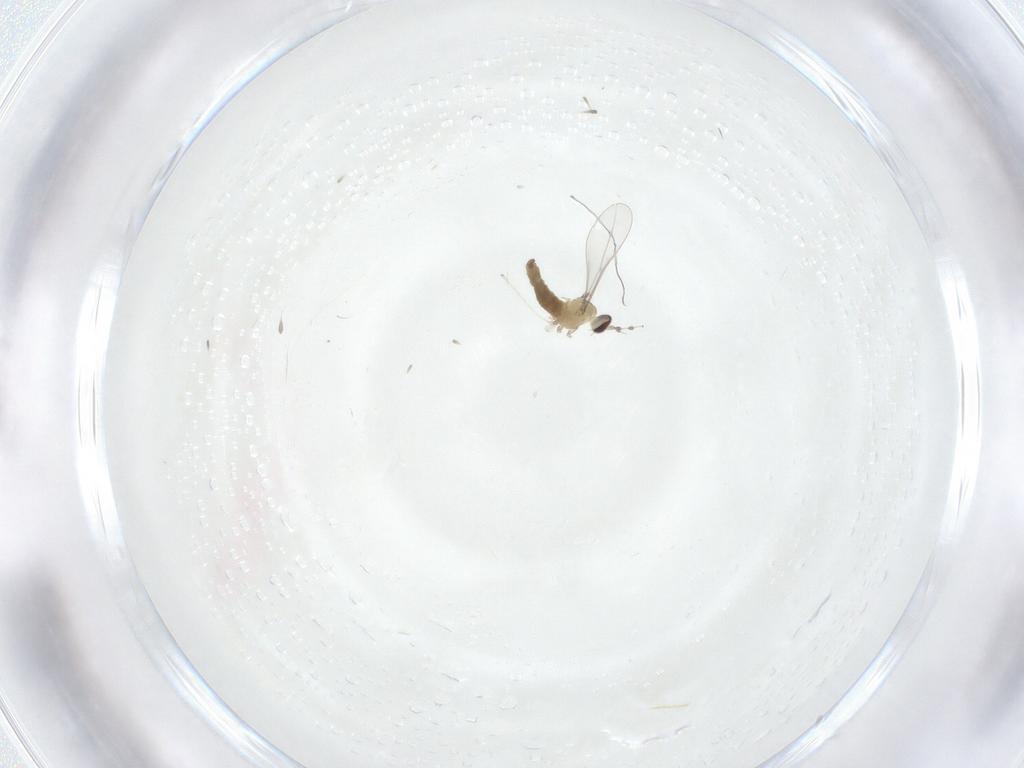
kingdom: Animalia
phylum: Arthropoda
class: Insecta
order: Diptera
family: Cecidomyiidae
